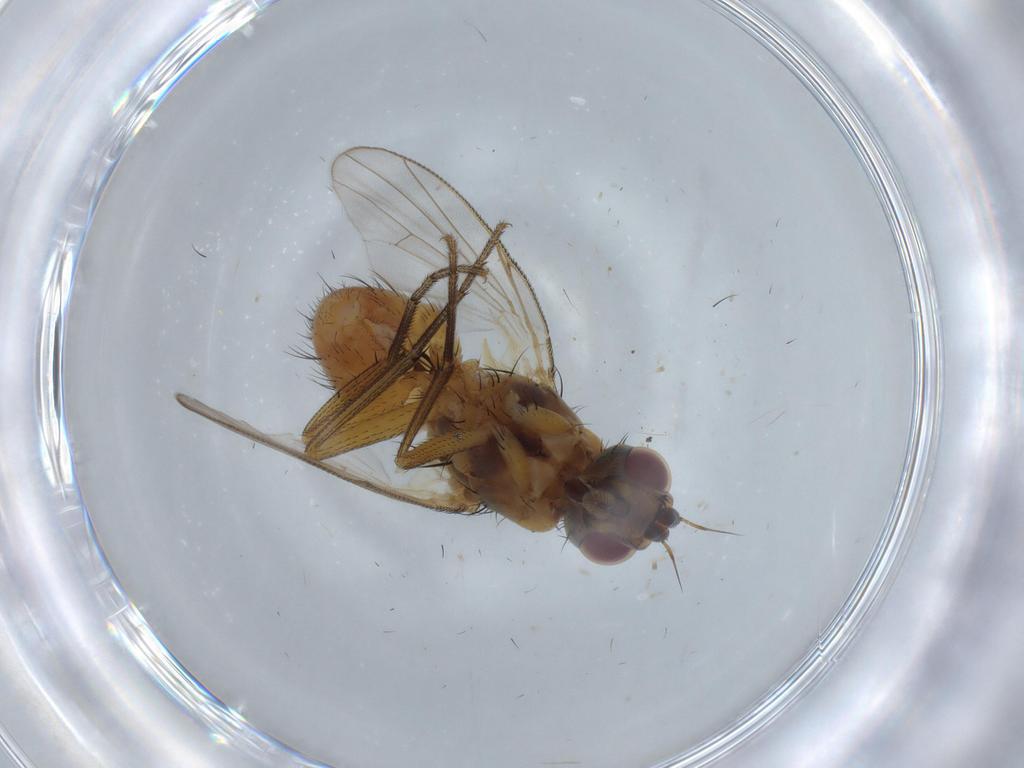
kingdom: Animalia
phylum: Arthropoda
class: Insecta
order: Diptera
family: Scatopsidae
